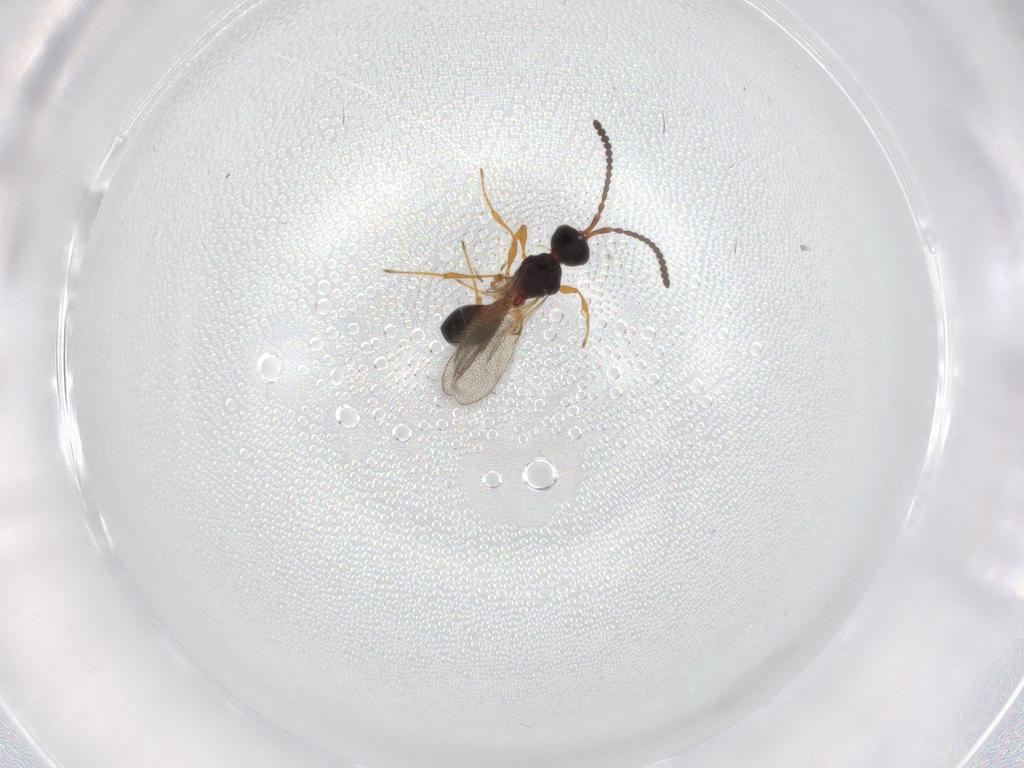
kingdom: Animalia
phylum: Arthropoda
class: Insecta
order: Hymenoptera
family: Diapriidae
